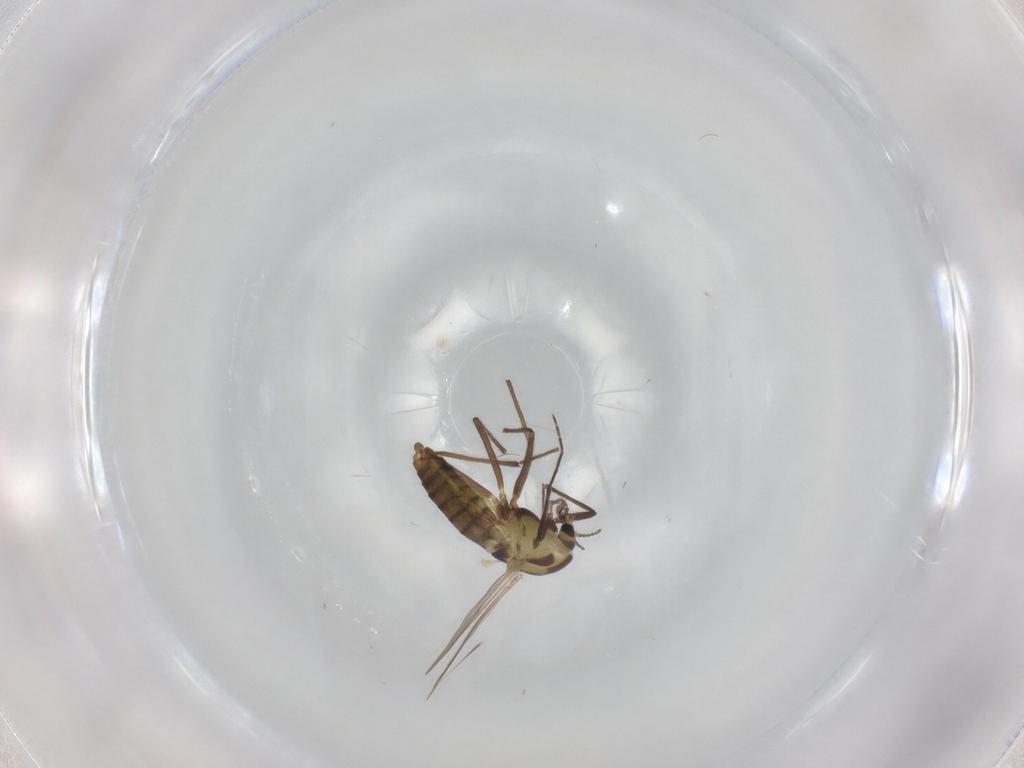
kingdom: Animalia
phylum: Arthropoda
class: Insecta
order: Diptera
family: Chironomidae
